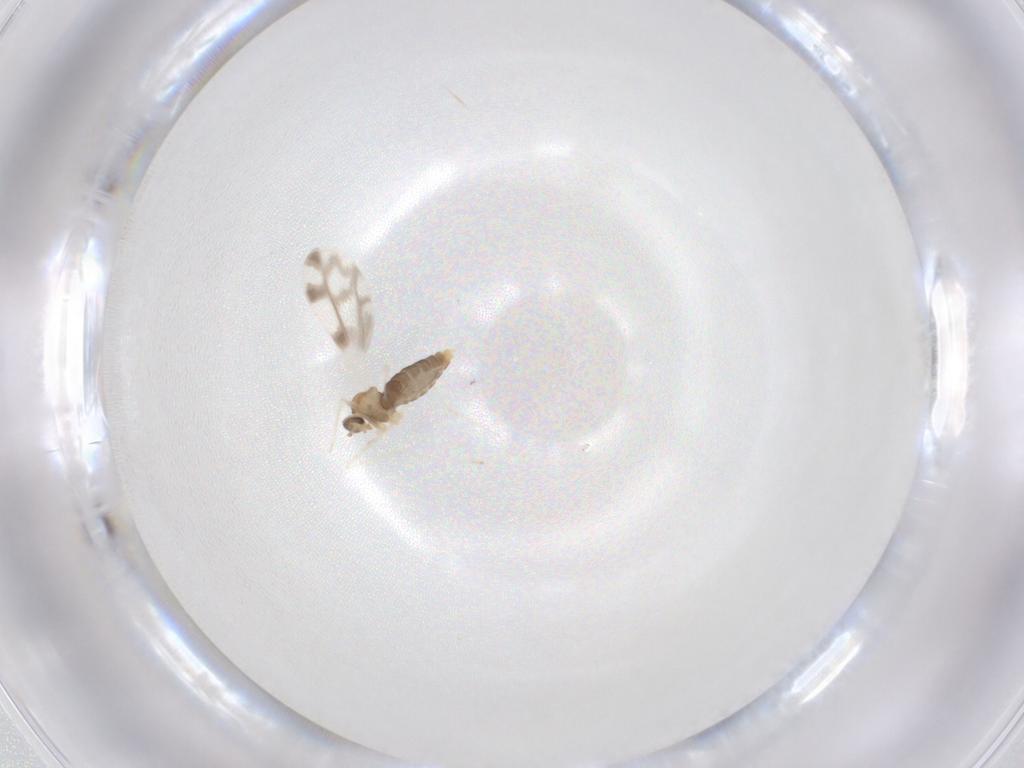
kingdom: Animalia
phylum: Arthropoda
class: Insecta
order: Diptera
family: Cecidomyiidae
